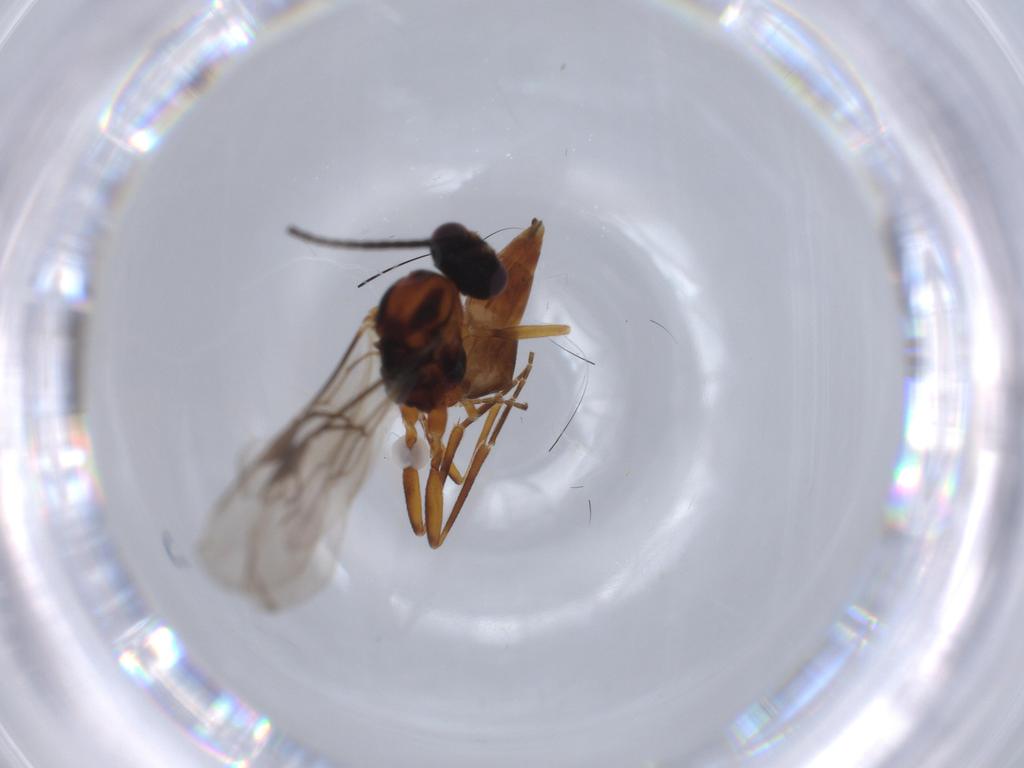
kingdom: Animalia
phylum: Arthropoda
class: Insecta
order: Hymenoptera
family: Braconidae
